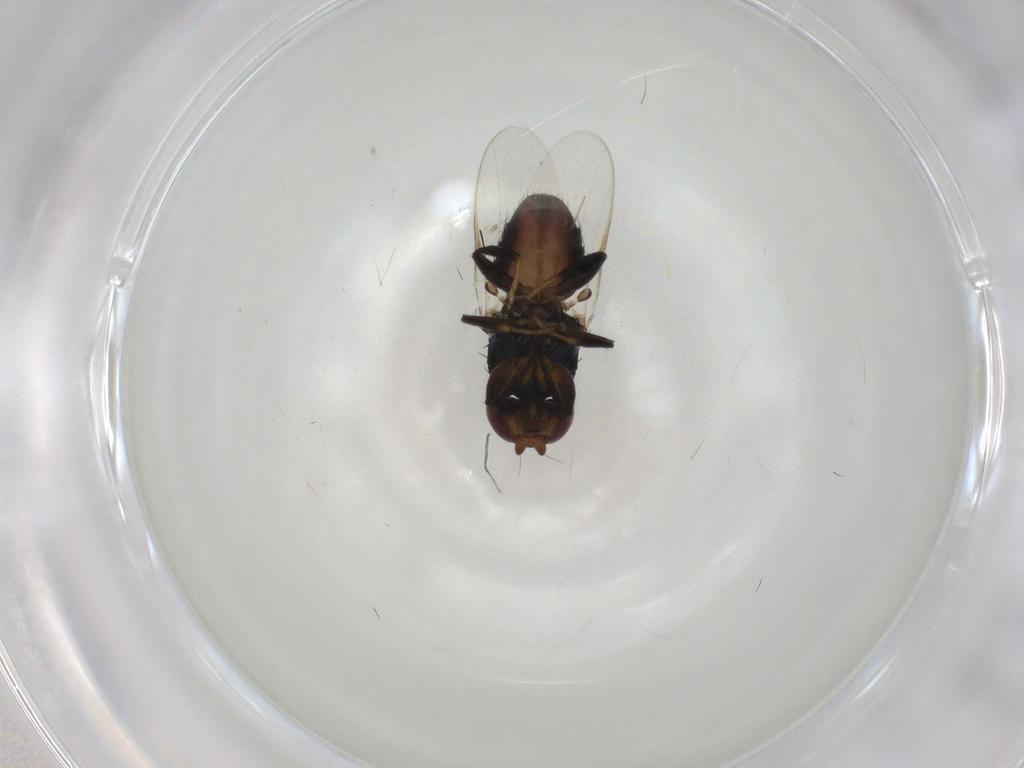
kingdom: Animalia
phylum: Arthropoda
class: Insecta
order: Diptera
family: Chloropidae
